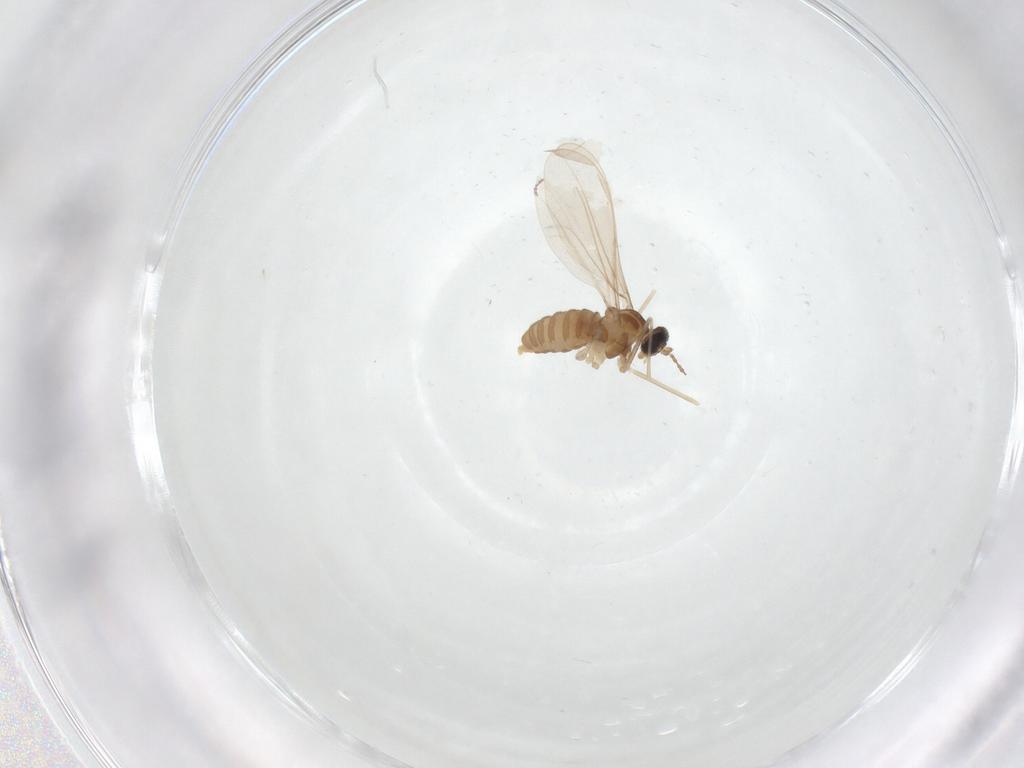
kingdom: Animalia
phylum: Arthropoda
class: Insecta
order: Diptera
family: Cecidomyiidae
